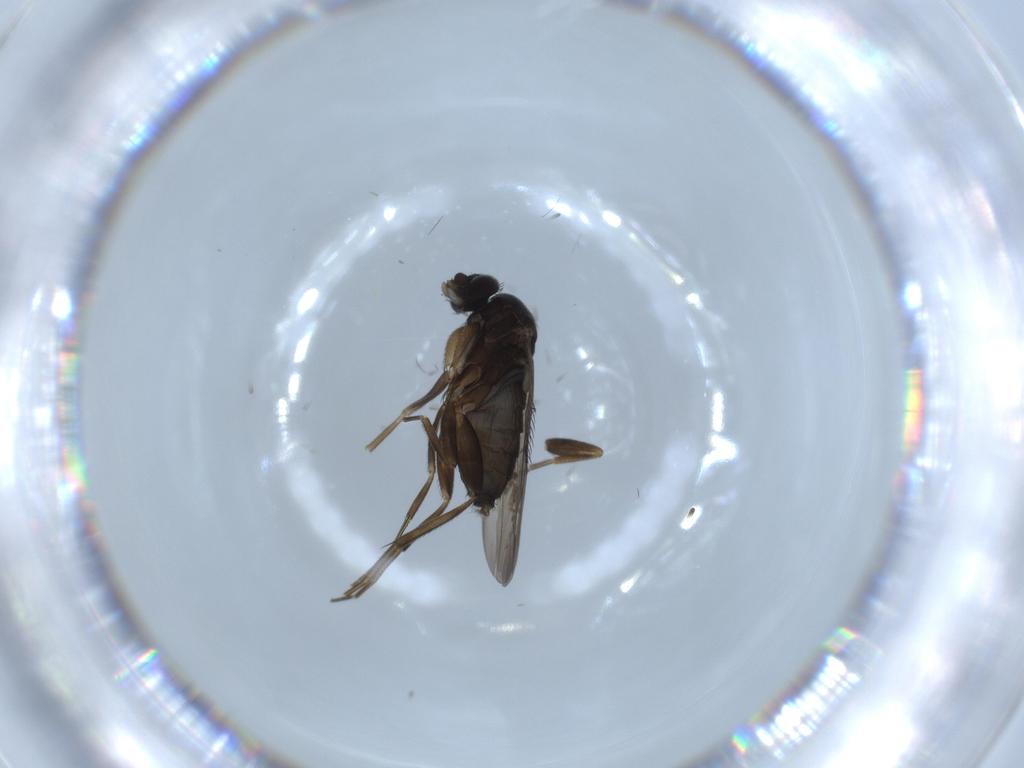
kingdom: Animalia
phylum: Arthropoda
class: Insecta
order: Diptera
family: Phoridae
